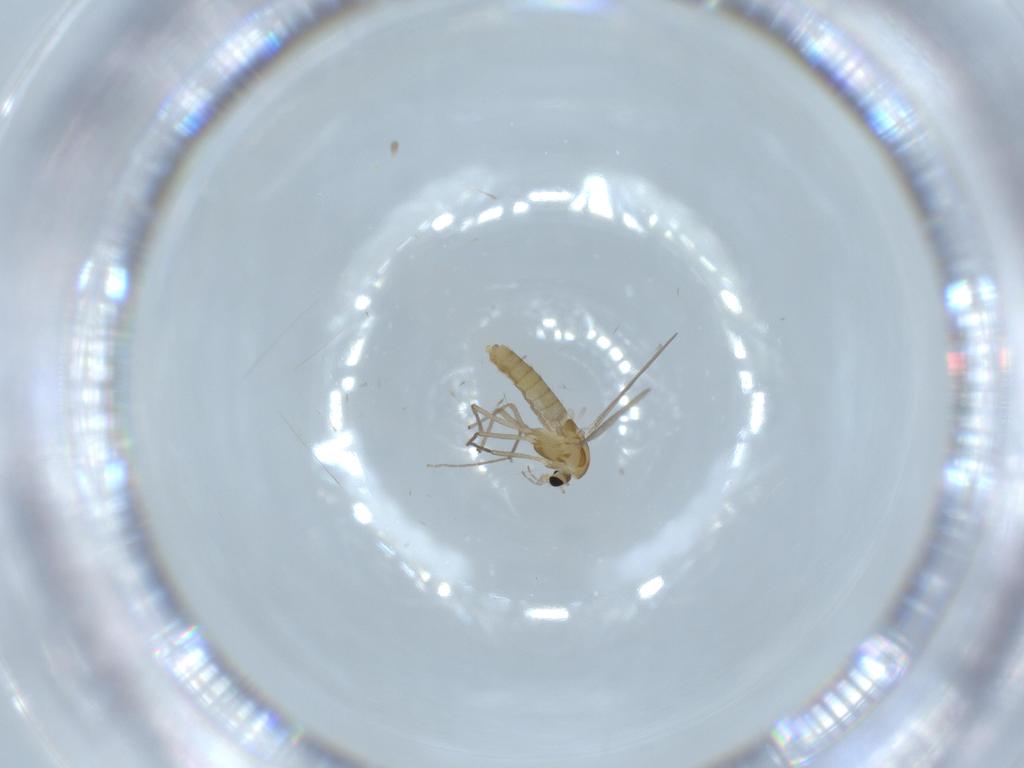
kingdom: Animalia
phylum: Arthropoda
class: Insecta
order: Diptera
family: Chironomidae
